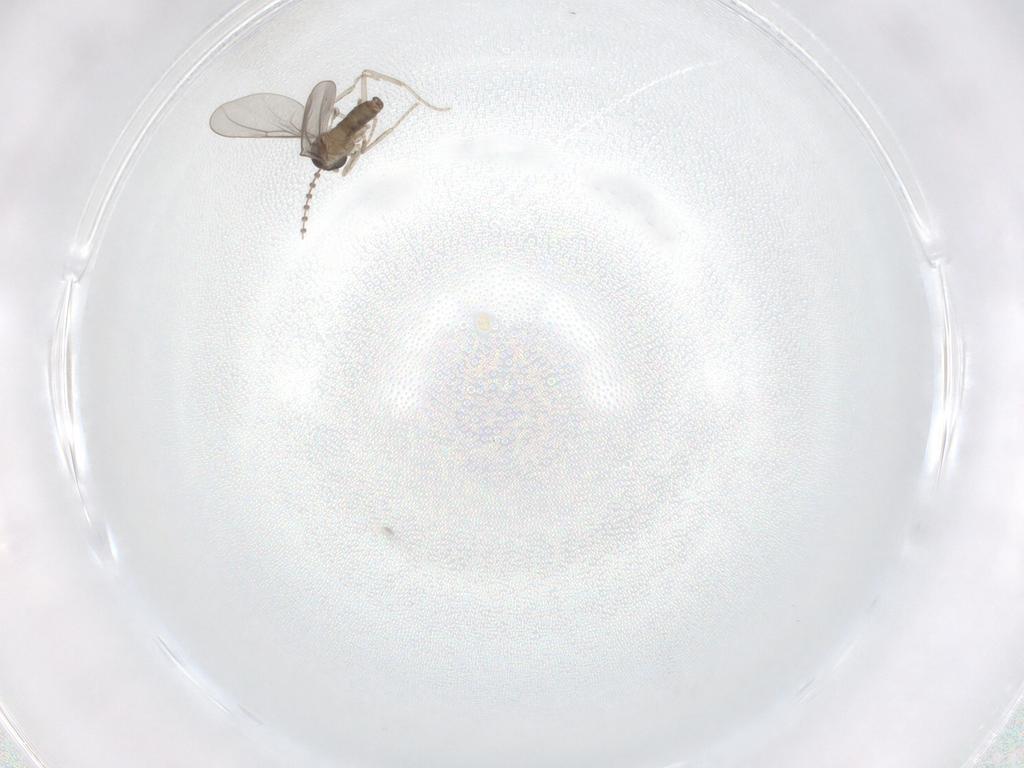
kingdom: Animalia
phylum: Arthropoda
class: Insecta
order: Diptera
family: Cecidomyiidae
